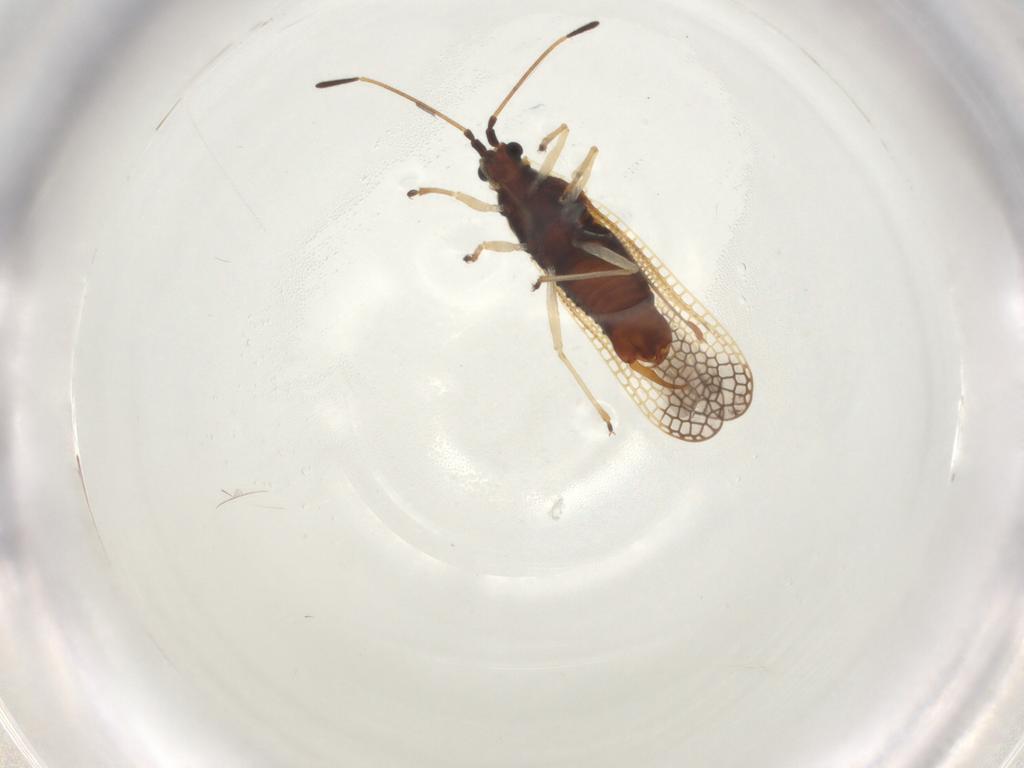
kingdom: Animalia
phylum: Arthropoda
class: Insecta
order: Hemiptera
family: Tingidae
